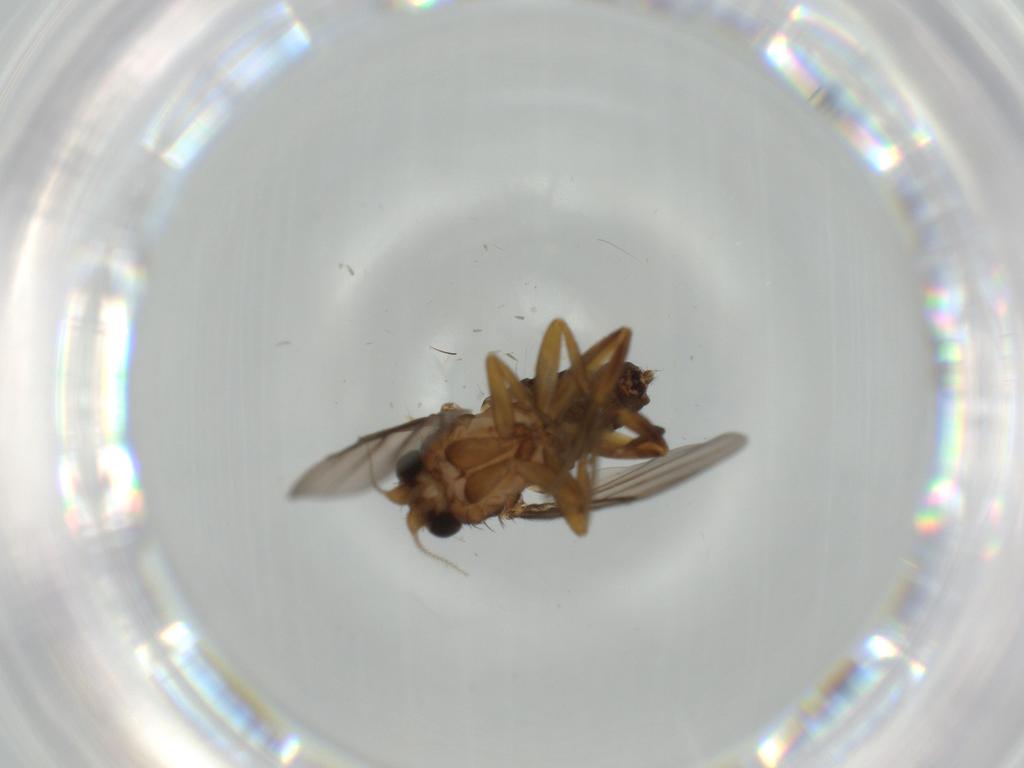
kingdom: Animalia
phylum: Arthropoda
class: Insecta
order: Diptera
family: Chironomidae
